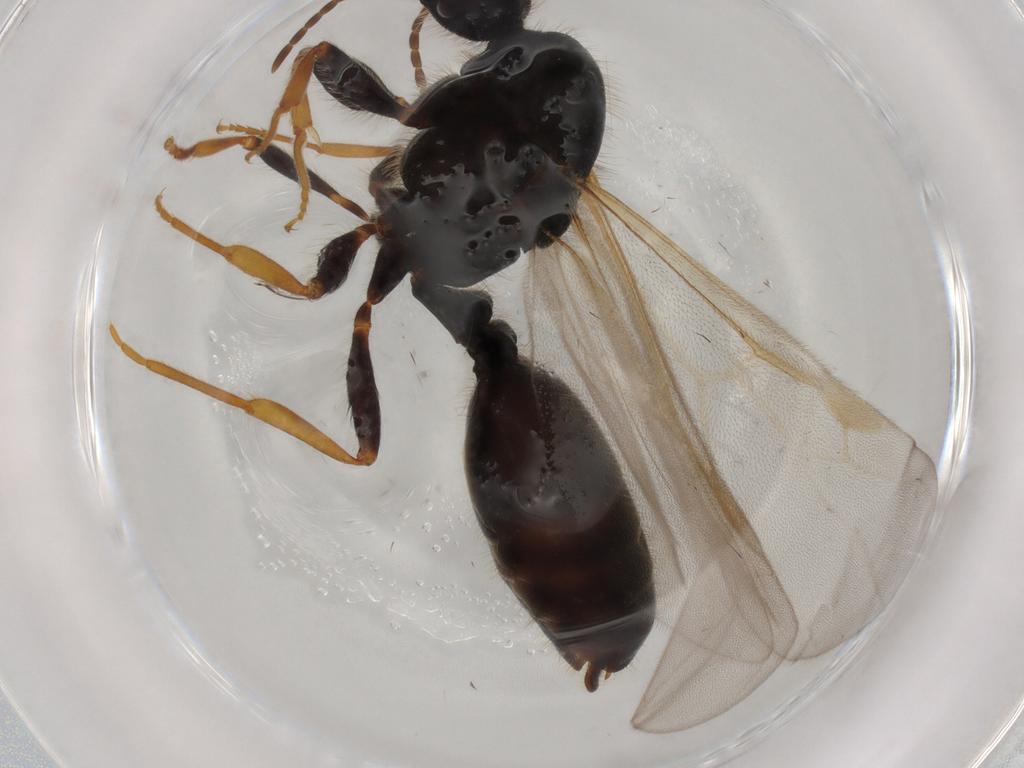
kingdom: Animalia
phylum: Arthropoda
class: Insecta
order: Hymenoptera
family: Formicidae
